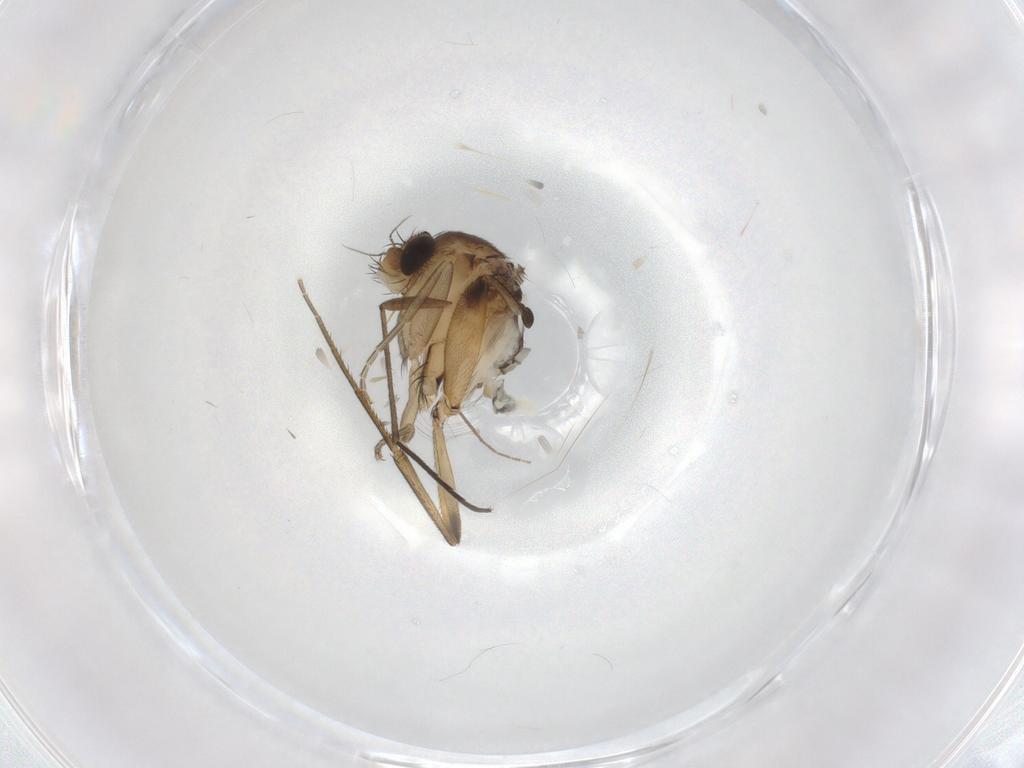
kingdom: Animalia
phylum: Arthropoda
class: Insecta
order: Diptera
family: Phoridae
